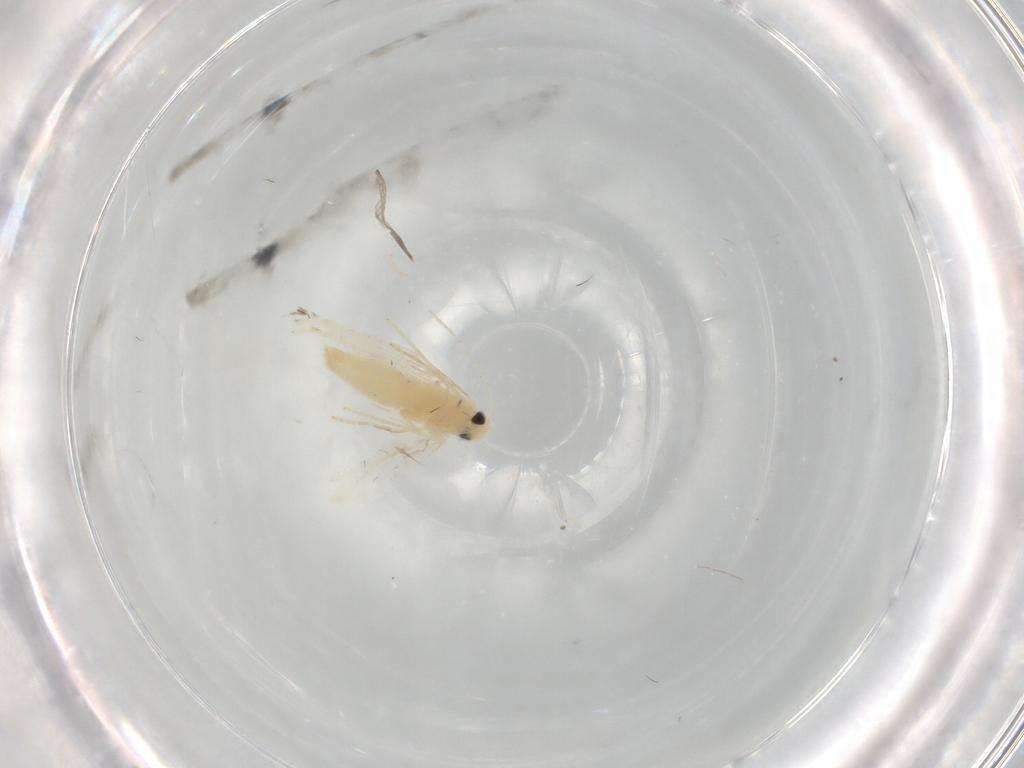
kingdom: Animalia
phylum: Arthropoda
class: Insecta
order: Lepidoptera
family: Gracillariidae
